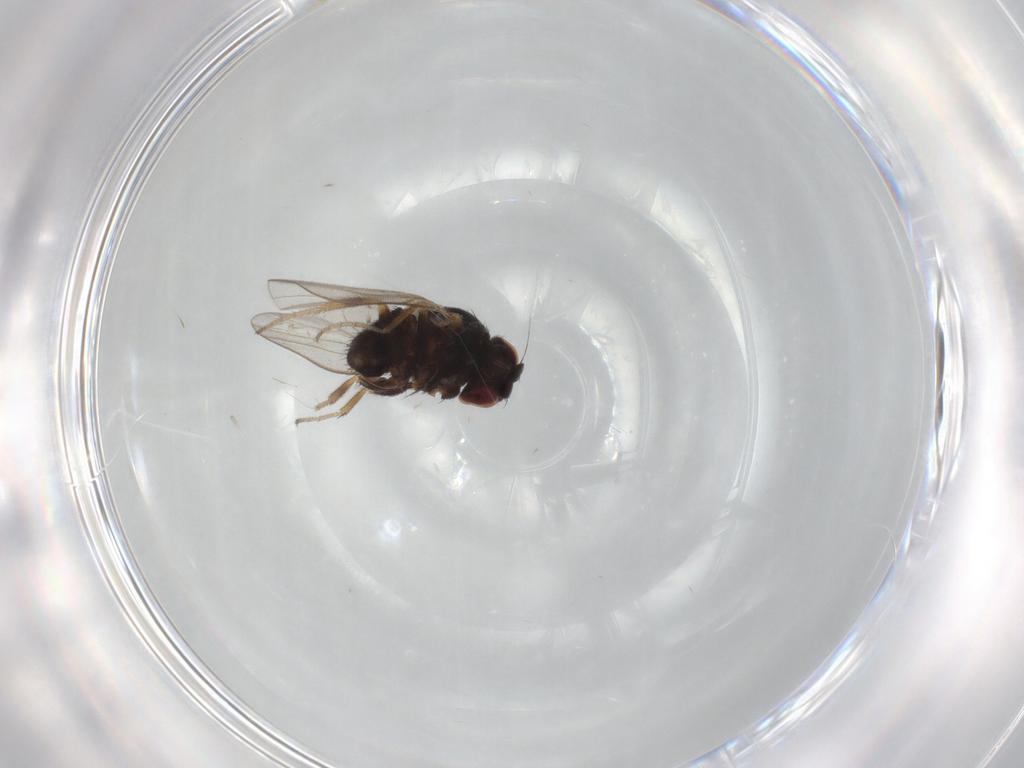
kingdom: Animalia
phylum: Arthropoda
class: Insecta
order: Diptera
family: Milichiidae
